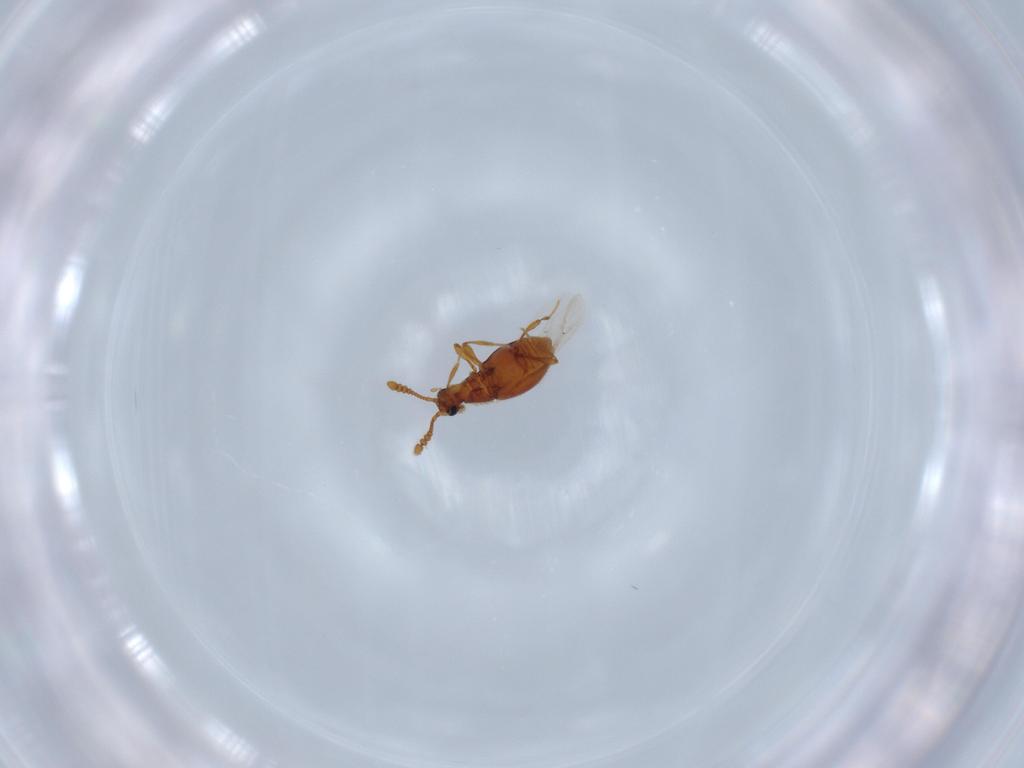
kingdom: Animalia
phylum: Arthropoda
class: Insecta
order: Coleoptera
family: Staphylinidae
